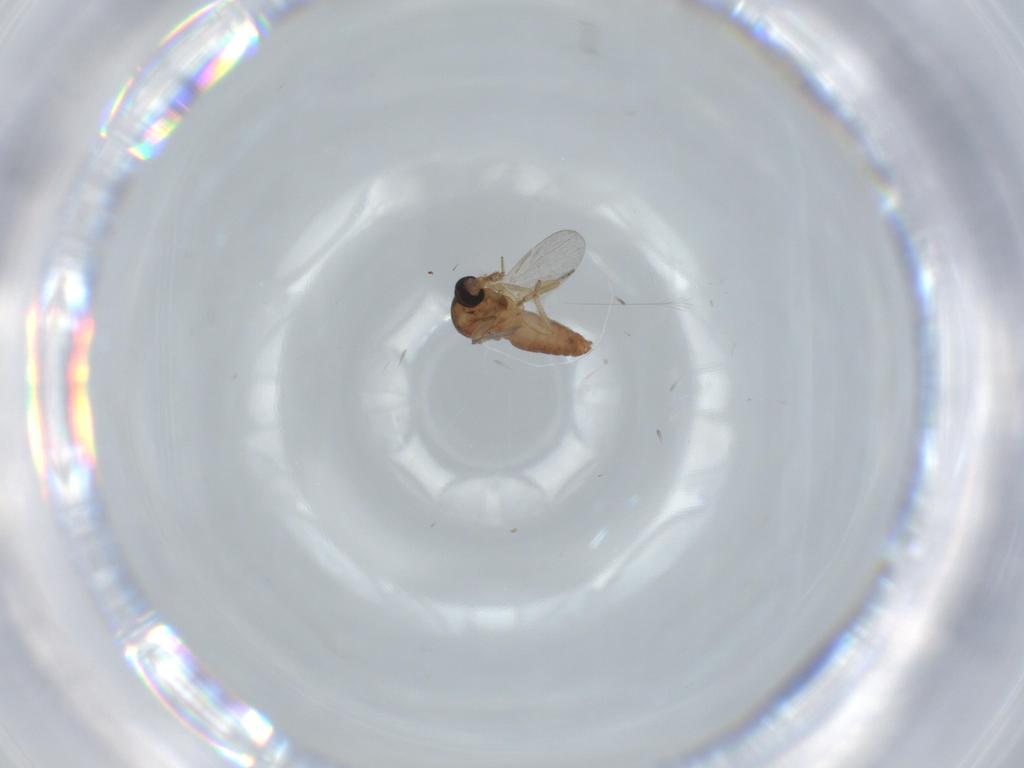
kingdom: Animalia
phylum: Arthropoda
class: Insecta
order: Diptera
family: Ceratopogonidae
